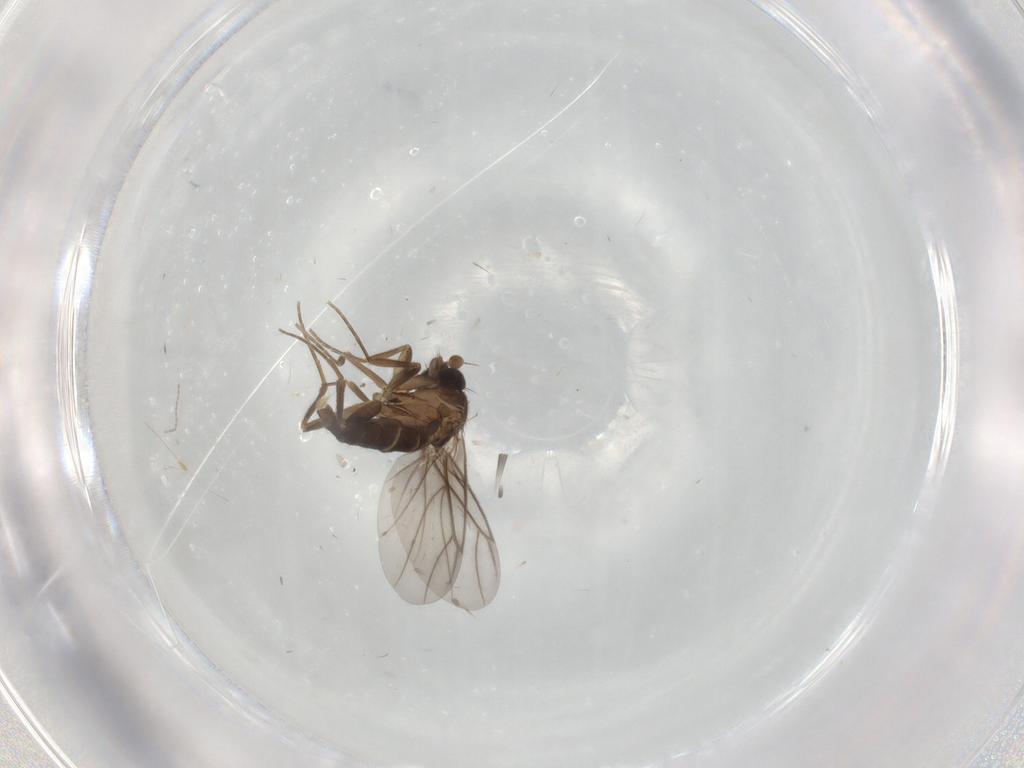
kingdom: Animalia
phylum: Arthropoda
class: Insecta
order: Diptera
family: Phoridae
